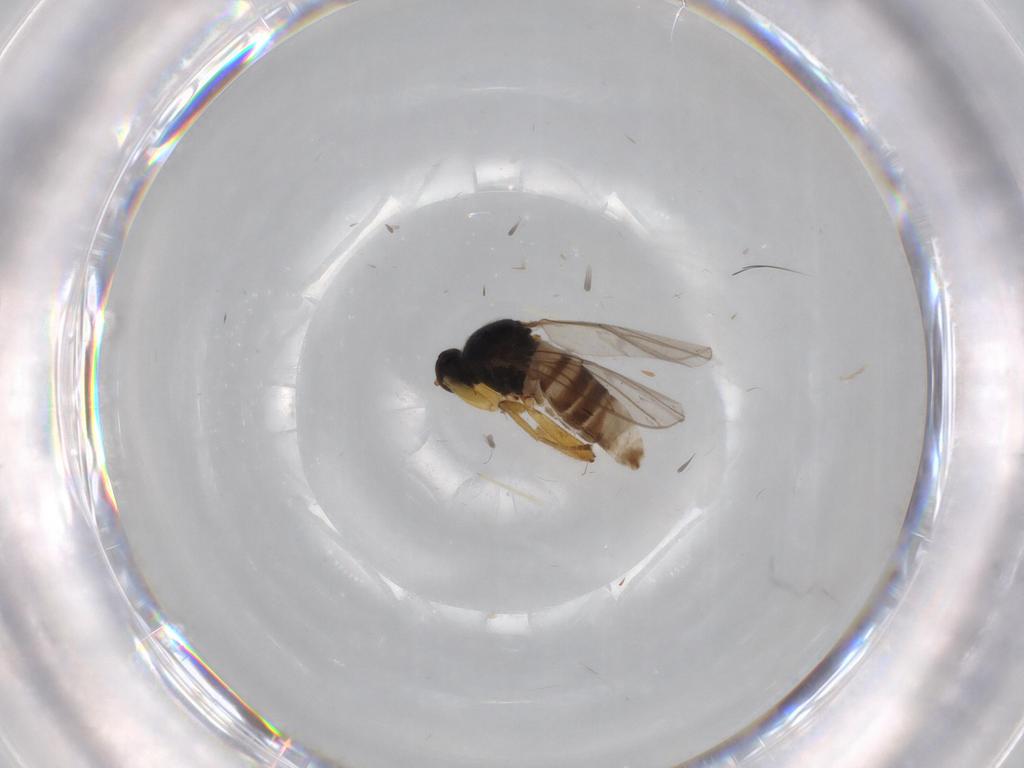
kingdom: Animalia
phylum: Arthropoda
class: Insecta
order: Diptera
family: Hybotidae
